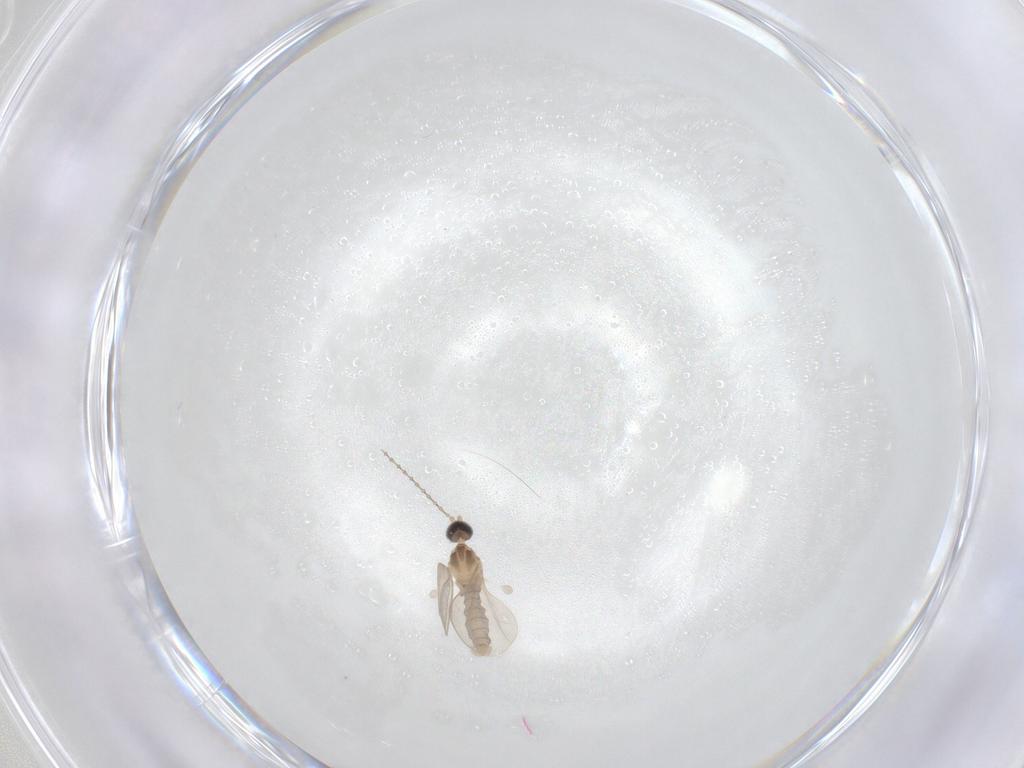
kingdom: Animalia
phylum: Arthropoda
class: Insecta
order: Diptera
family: Cecidomyiidae
